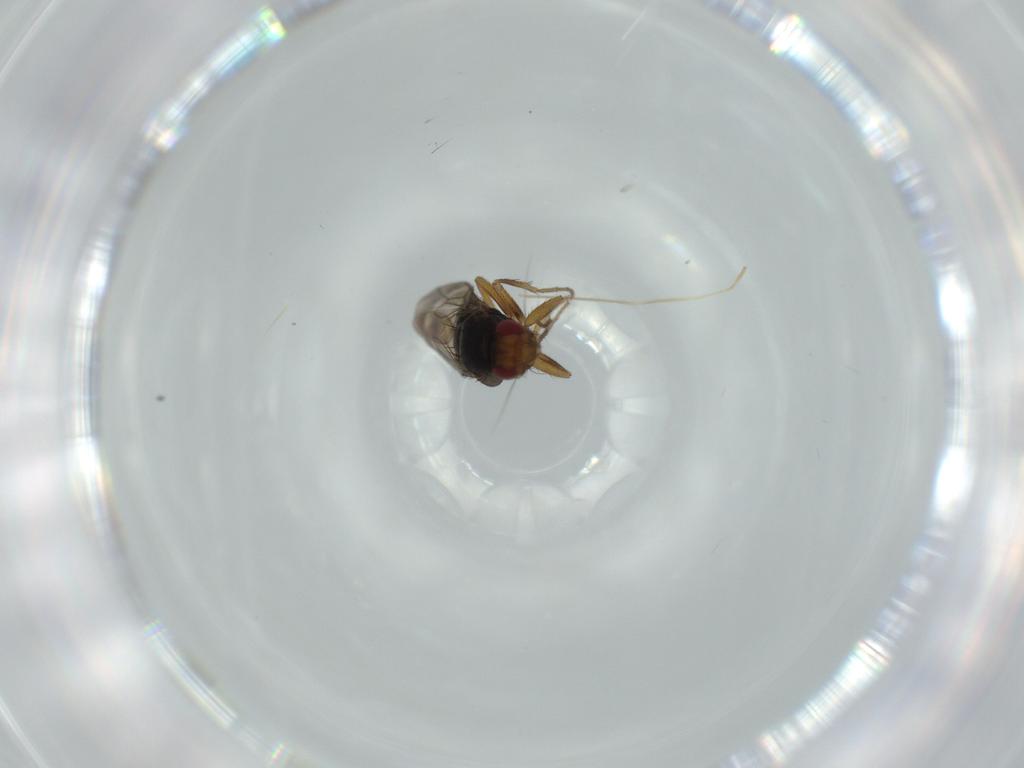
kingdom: Animalia
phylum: Arthropoda
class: Insecta
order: Diptera
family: Sphaeroceridae
